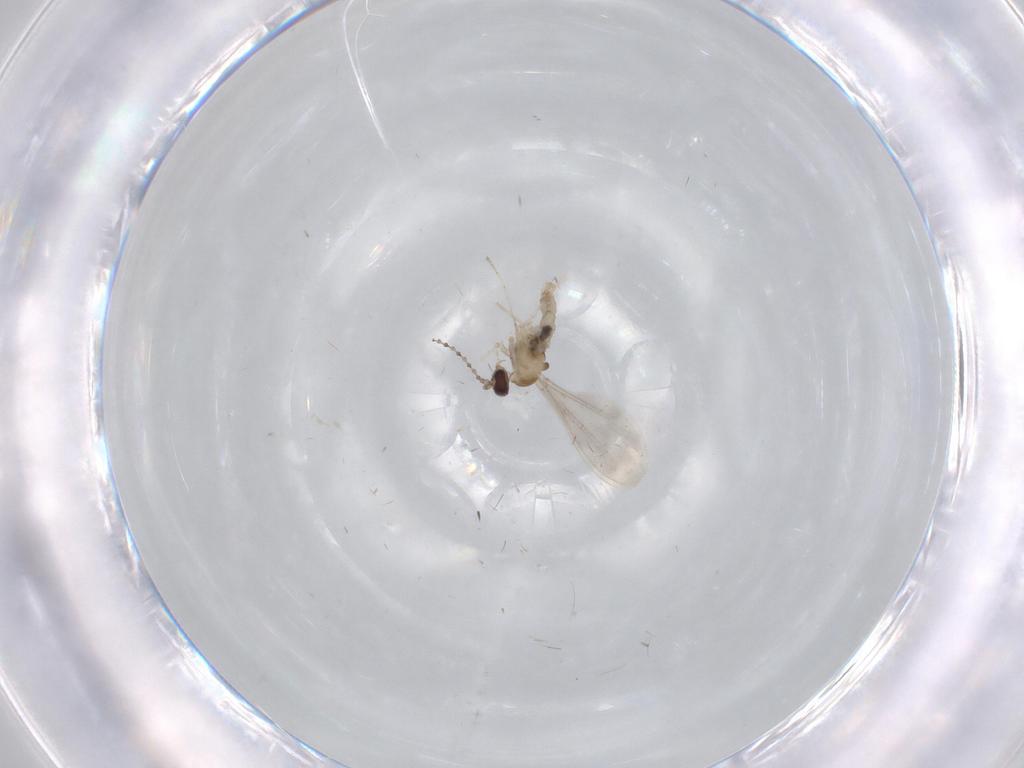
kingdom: Animalia
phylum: Arthropoda
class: Insecta
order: Diptera
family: Cecidomyiidae
